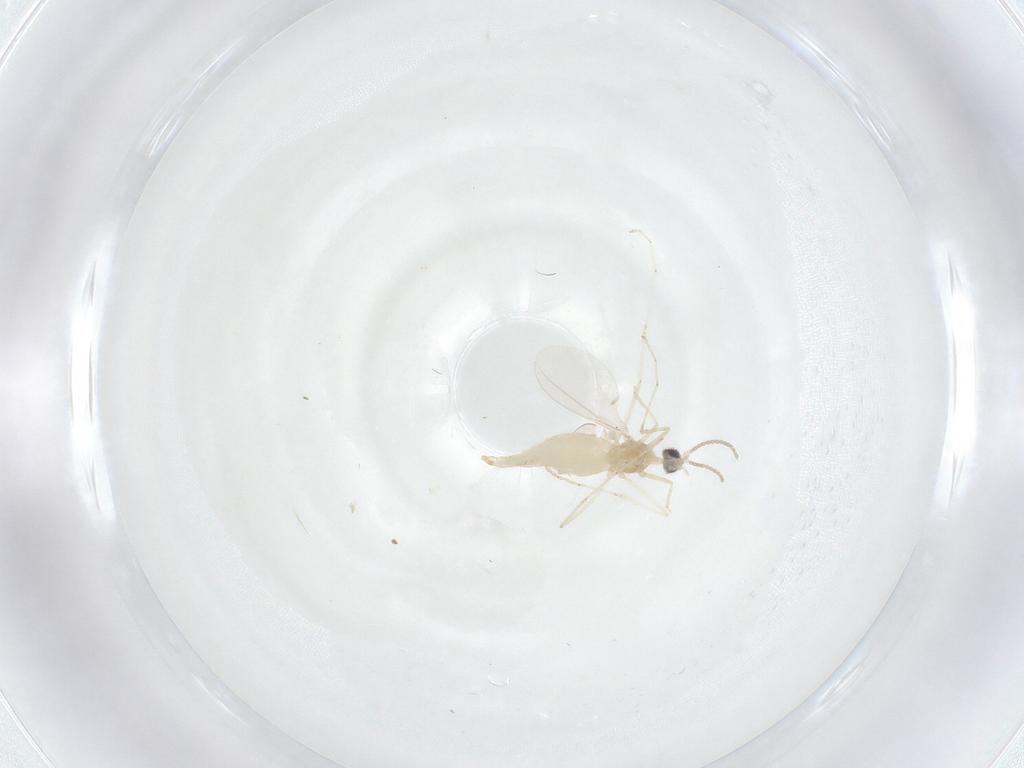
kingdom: Animalia
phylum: Arthropoda
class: Insecta
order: Diptera
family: Cecidomyiidae
